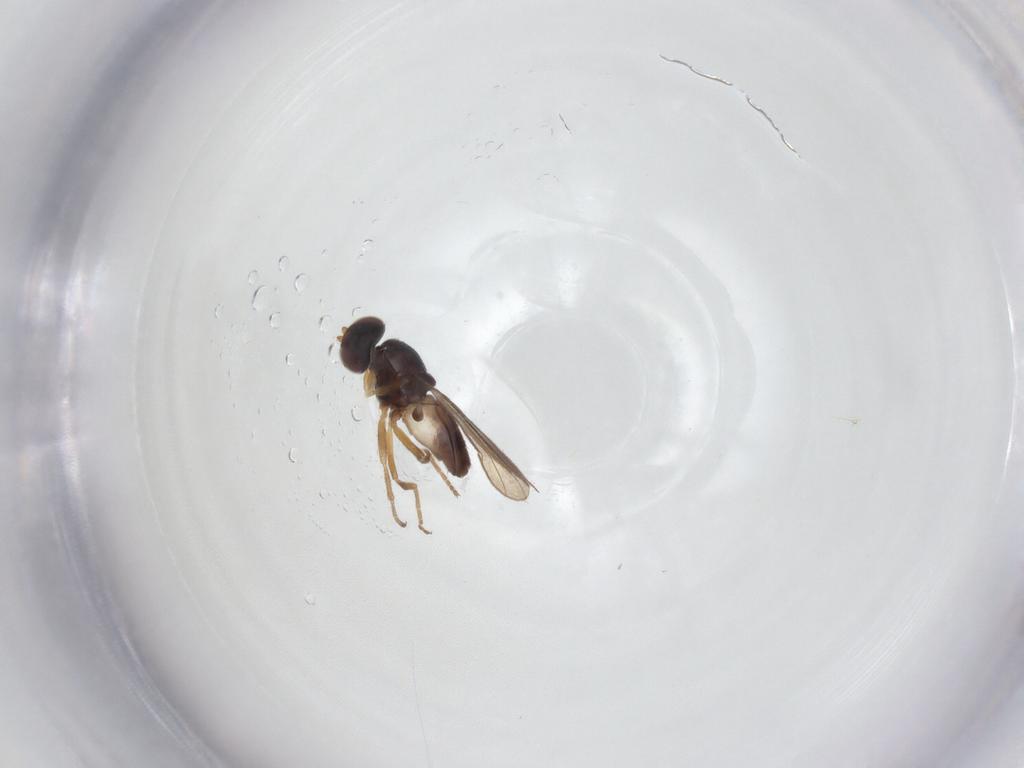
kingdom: Animalia
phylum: Arthropoda
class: Insecta
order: Diptera
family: Chloropidae
